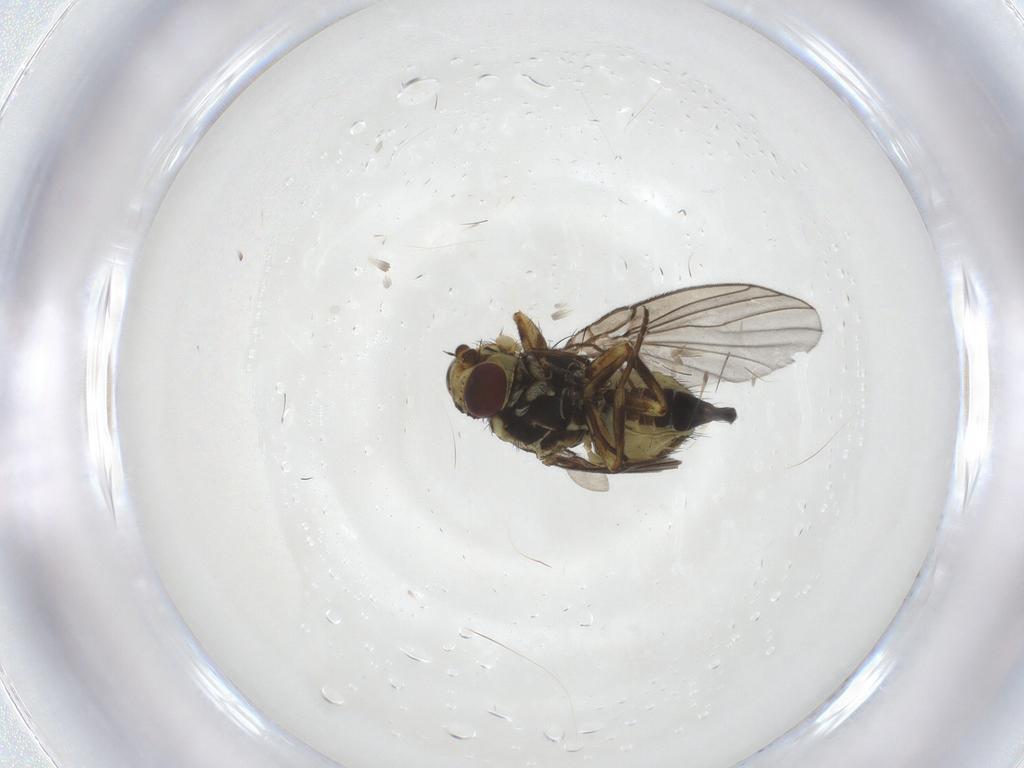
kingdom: Animalia
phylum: Arthropoda
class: Insecta
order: Diptera
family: Agromyzidae
